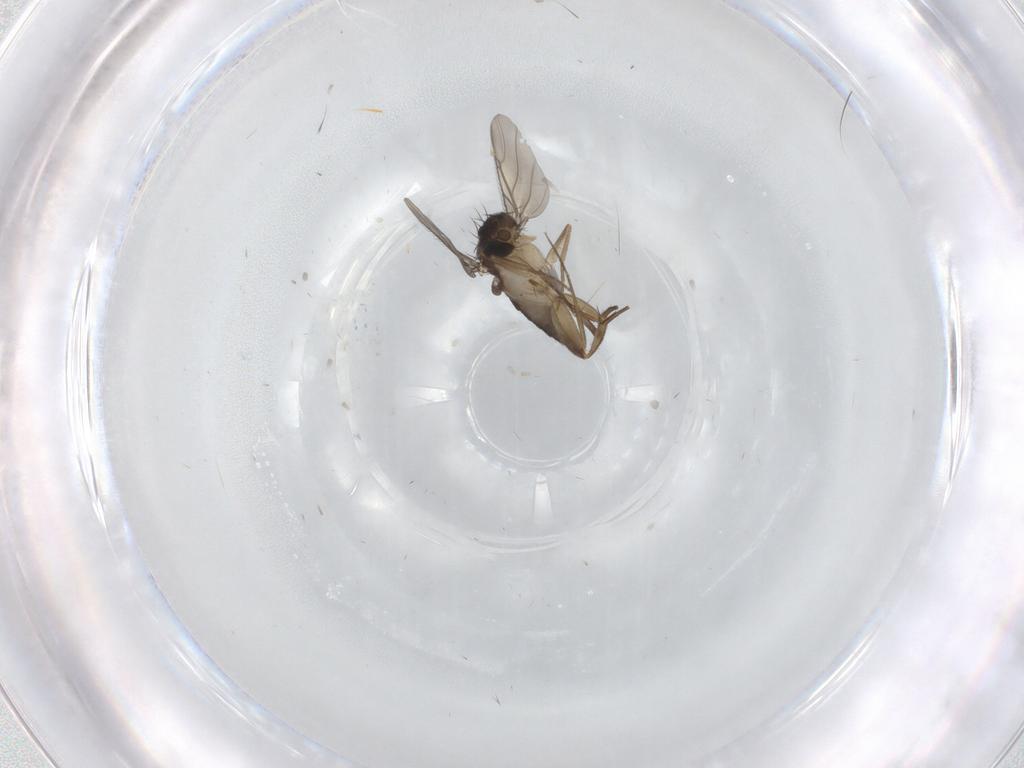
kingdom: Animalia
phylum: Arthropoda
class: Insecta
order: Diptera
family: Phoridae
